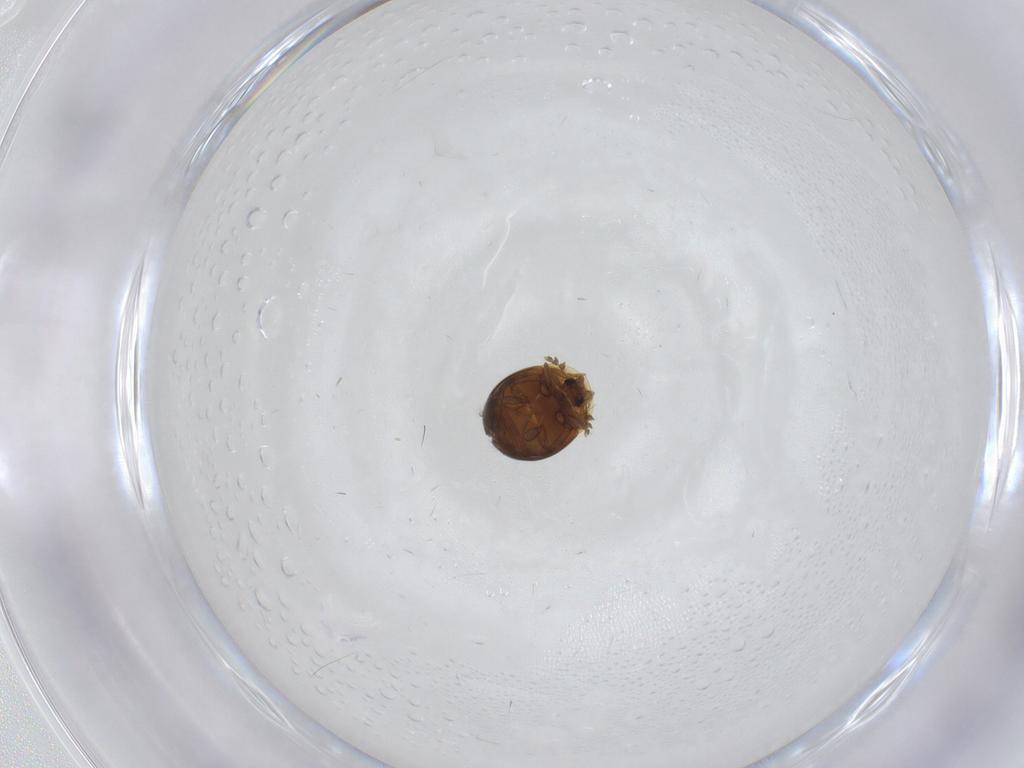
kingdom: Animalia
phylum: Arthropoda
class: Insecta
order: Coleoptera
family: Corylophidae
